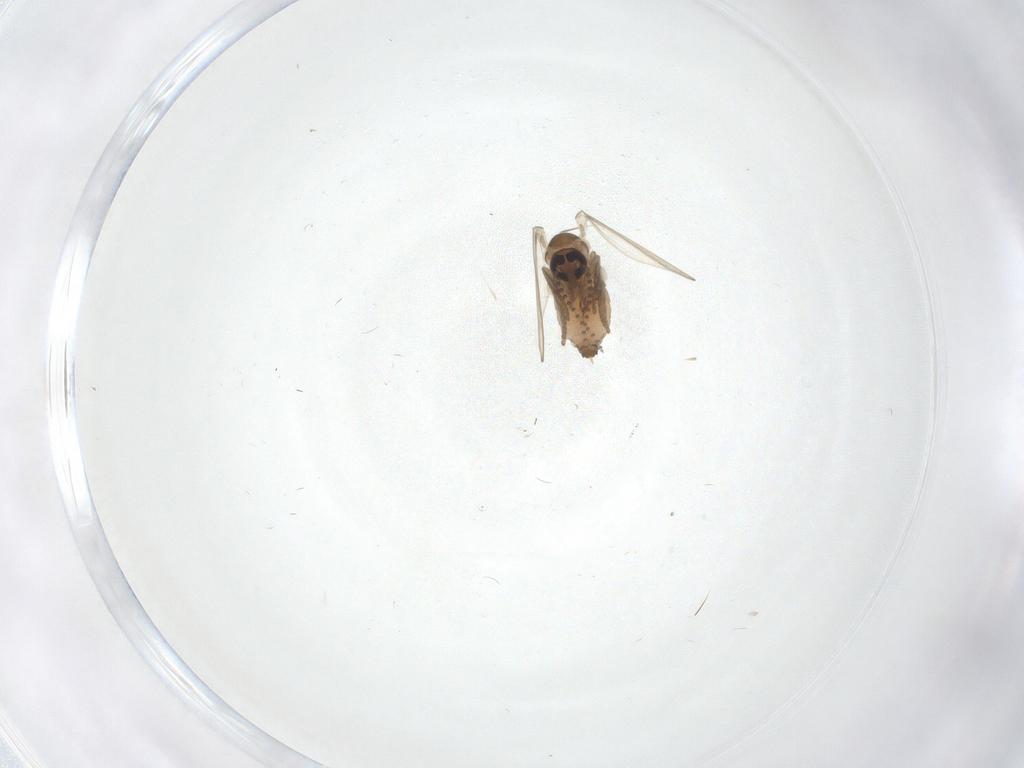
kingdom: Animalia
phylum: Arthropoda
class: Insecta
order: Diptera
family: Psychodidae
